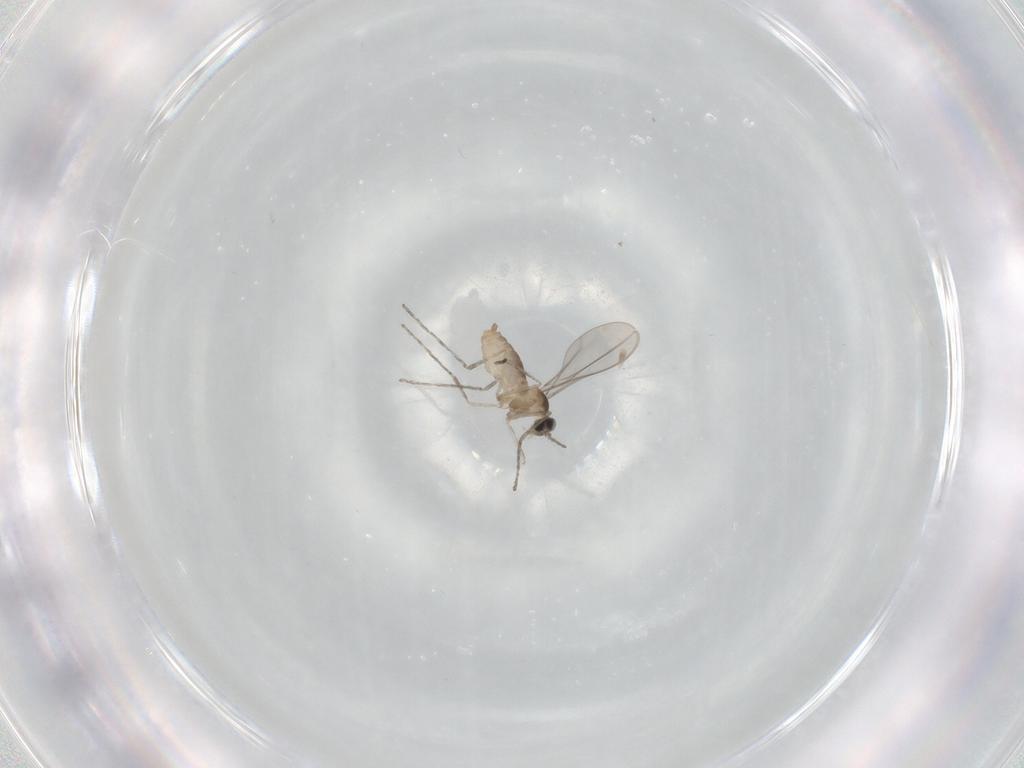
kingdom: Animalia
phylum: Arthropoda
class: Insecta
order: Diptera
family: Cecidomyiidae
